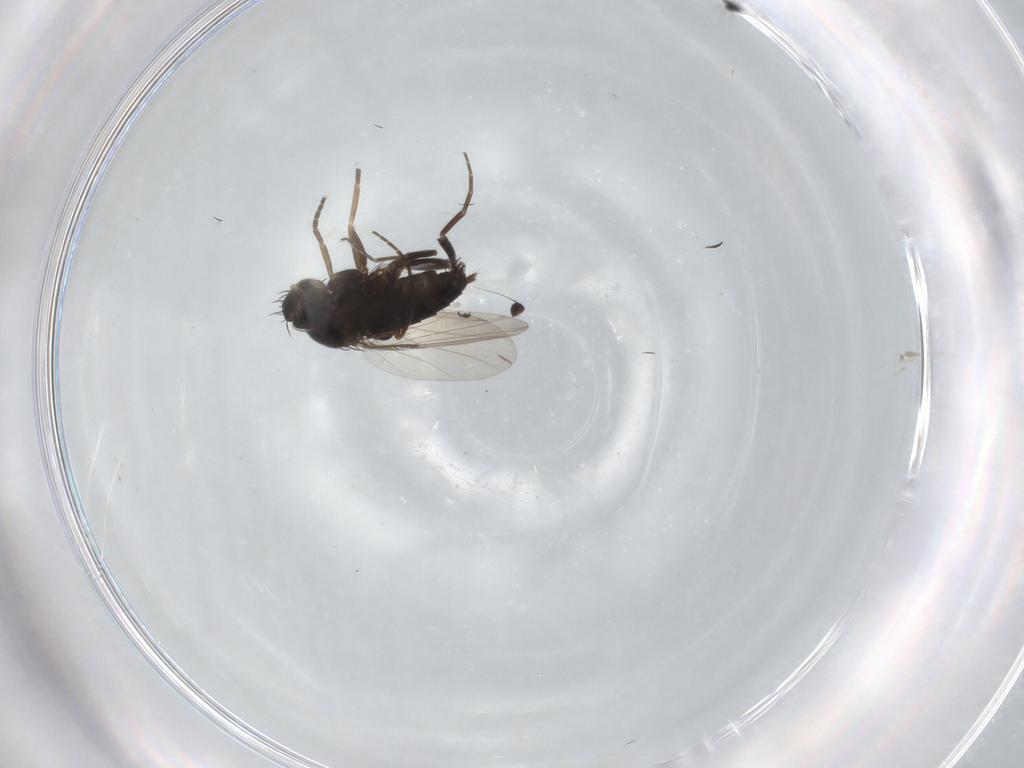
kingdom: Animalia
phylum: Arthropoda
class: Insecta
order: Diptera
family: Phoridae
